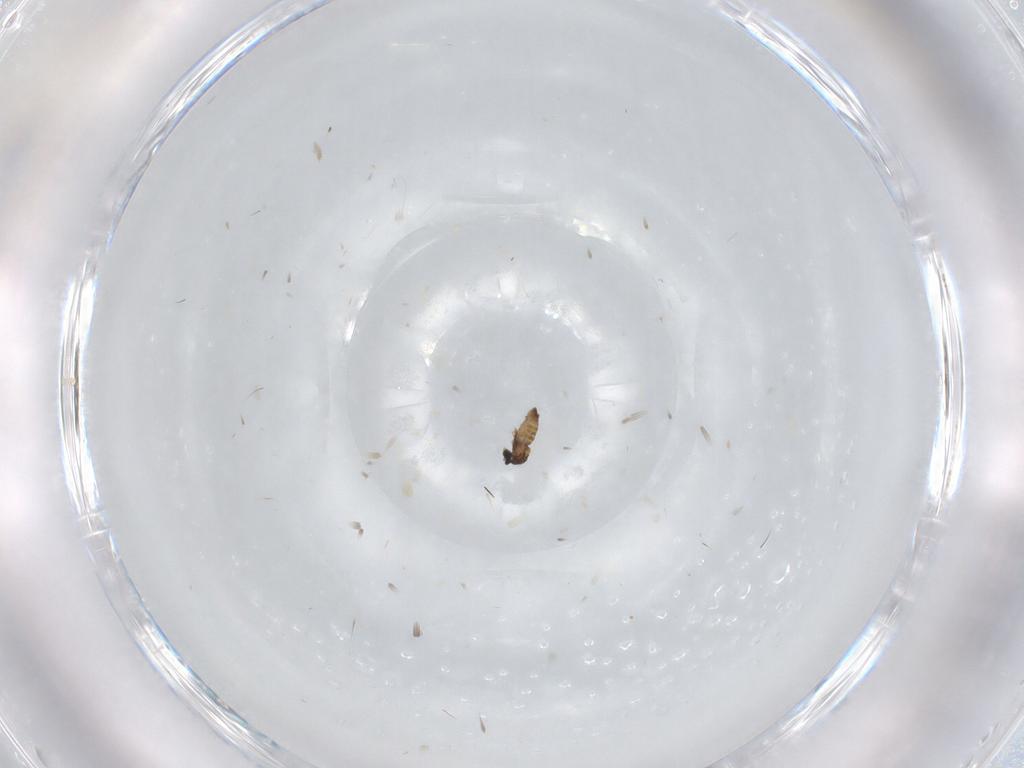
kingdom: Animalia
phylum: Arthropoda
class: Insecta
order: Diptera
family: Cecidomyiidae
